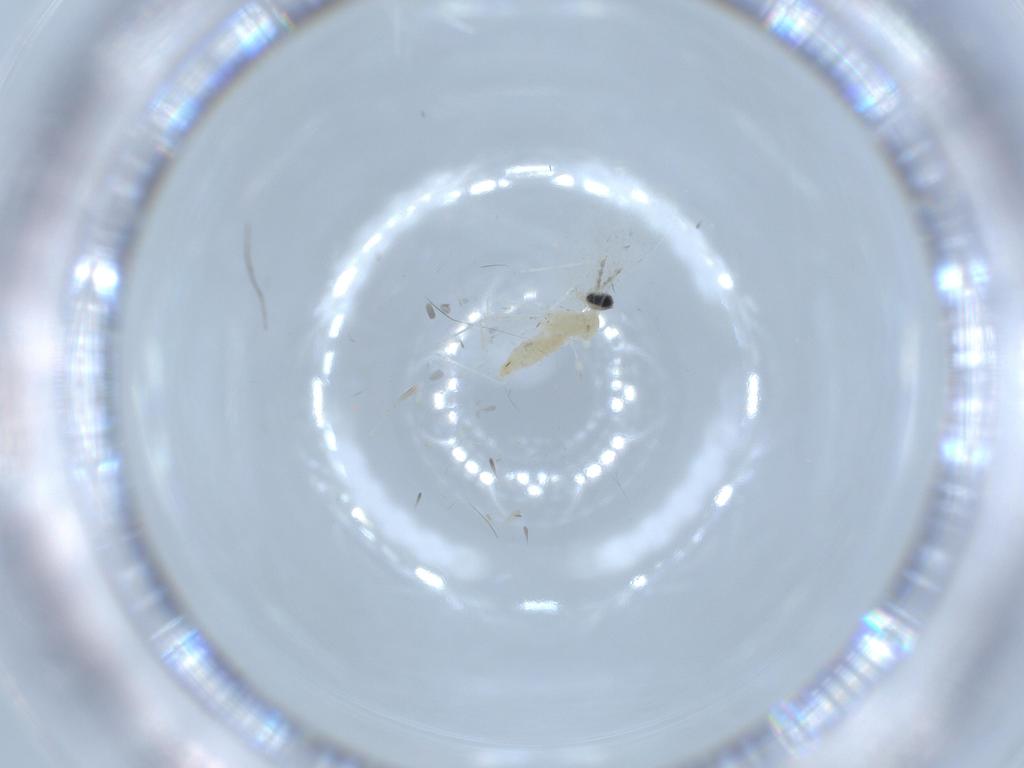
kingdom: Animalia
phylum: Arthropoda
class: Insecta
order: Diptera
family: Cecidomyiidae
